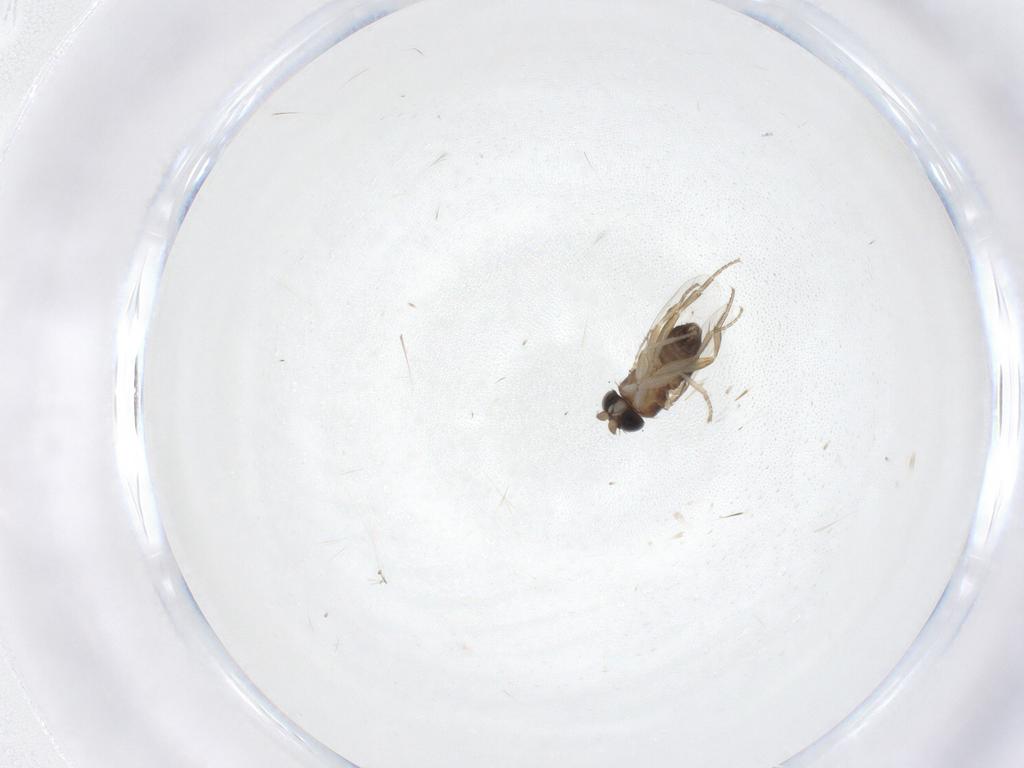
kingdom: Animalia
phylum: Arthropoda
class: Insecta
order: Diptera
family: Phoridae
